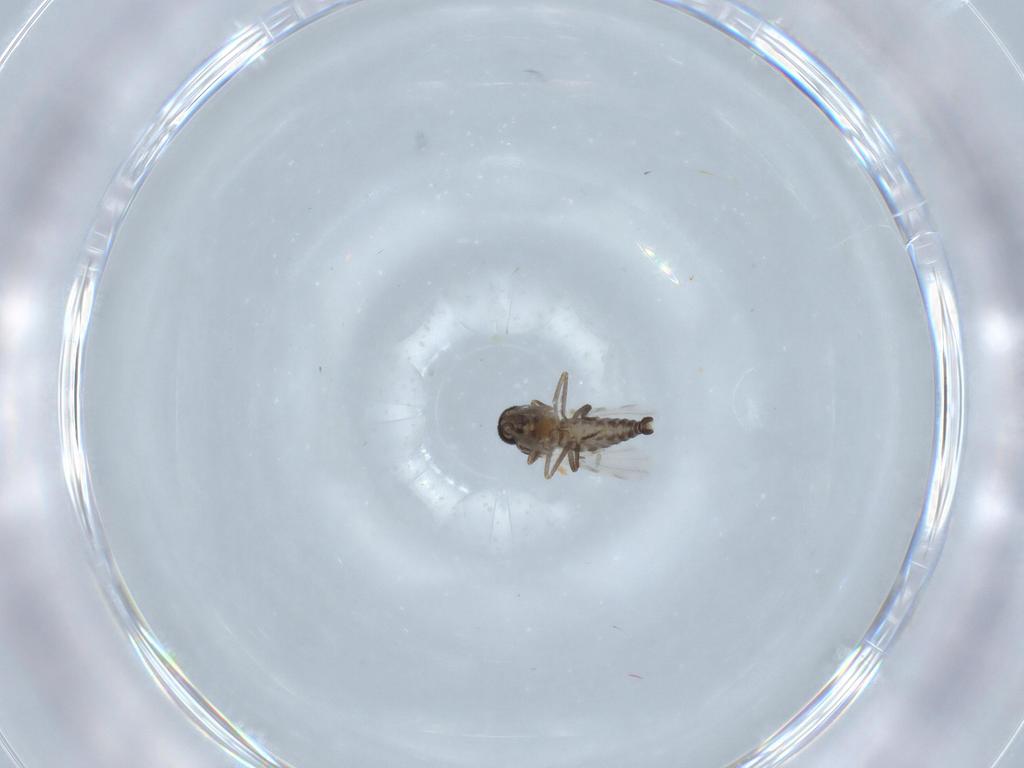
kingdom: Animalia
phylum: Arthropoda
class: Insecta
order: Diptera
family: Ceratopogonidae
